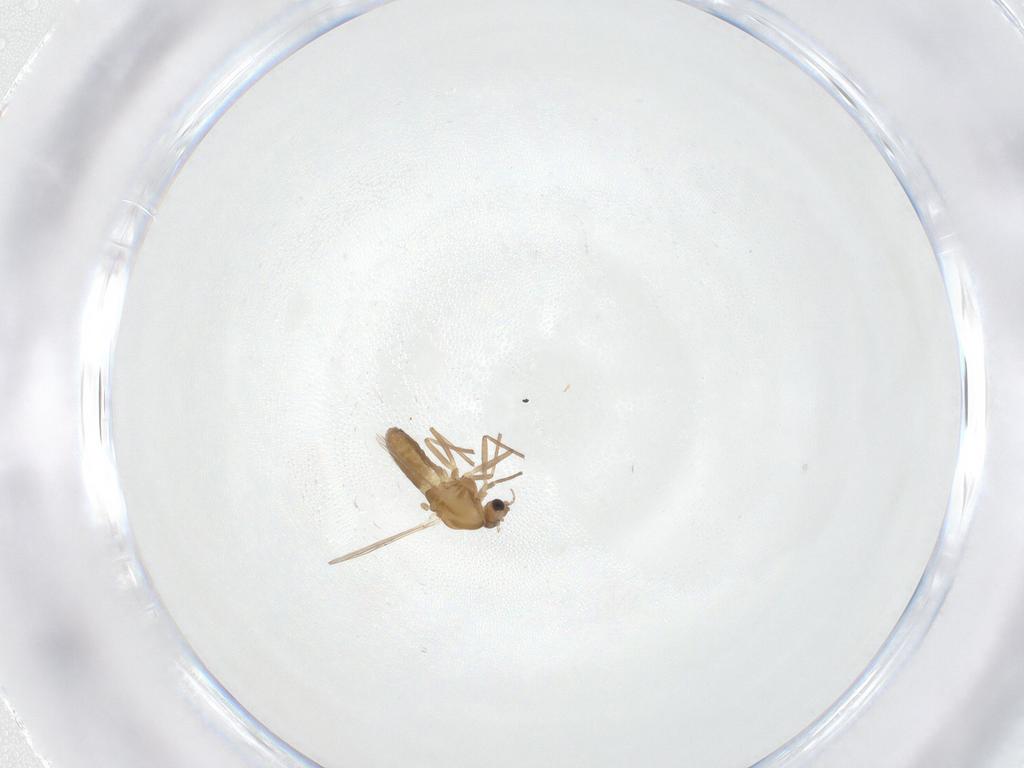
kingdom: Animalia
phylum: Arthropoda
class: Insecta
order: Diptera
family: Chironomidae
